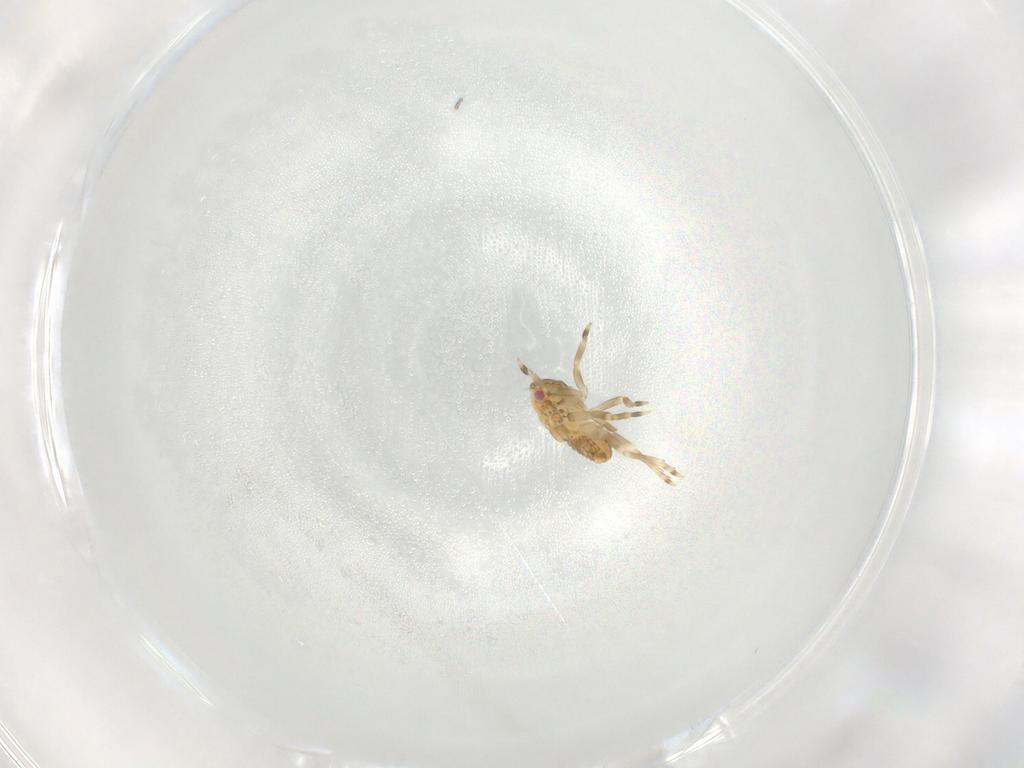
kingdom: Animalia
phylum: Arthropoda
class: Insecta
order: Hemiptera
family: Flatidae
